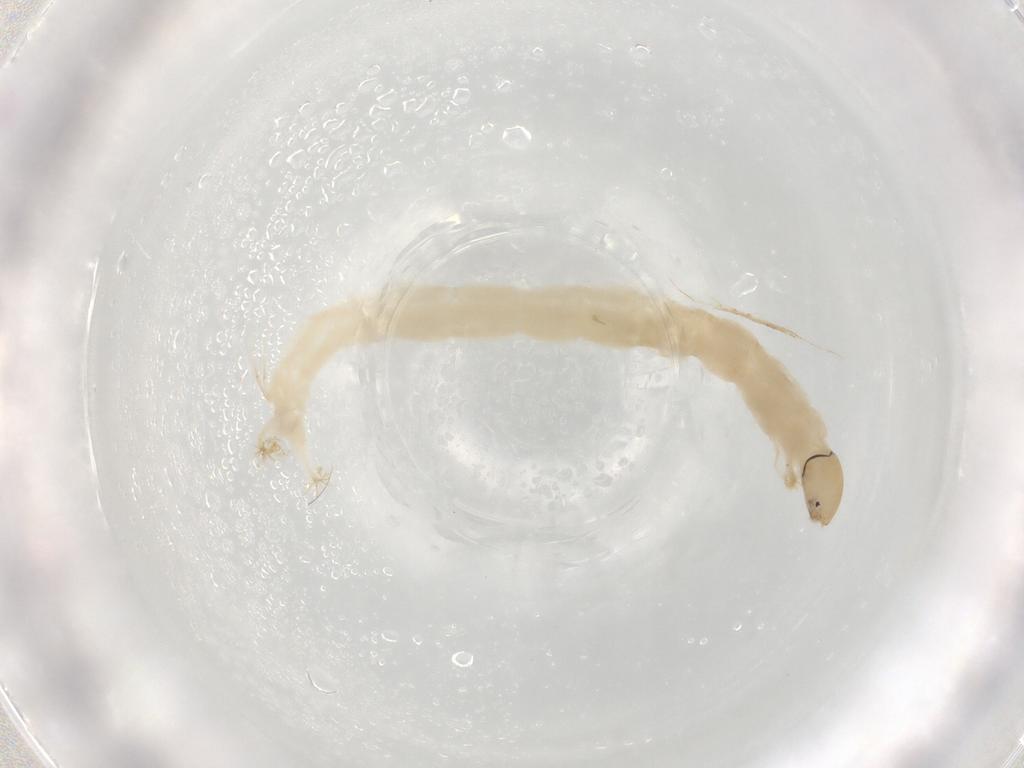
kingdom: Animalia
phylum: Arthropoda
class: Insecta
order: Diptera
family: Chironomidae
